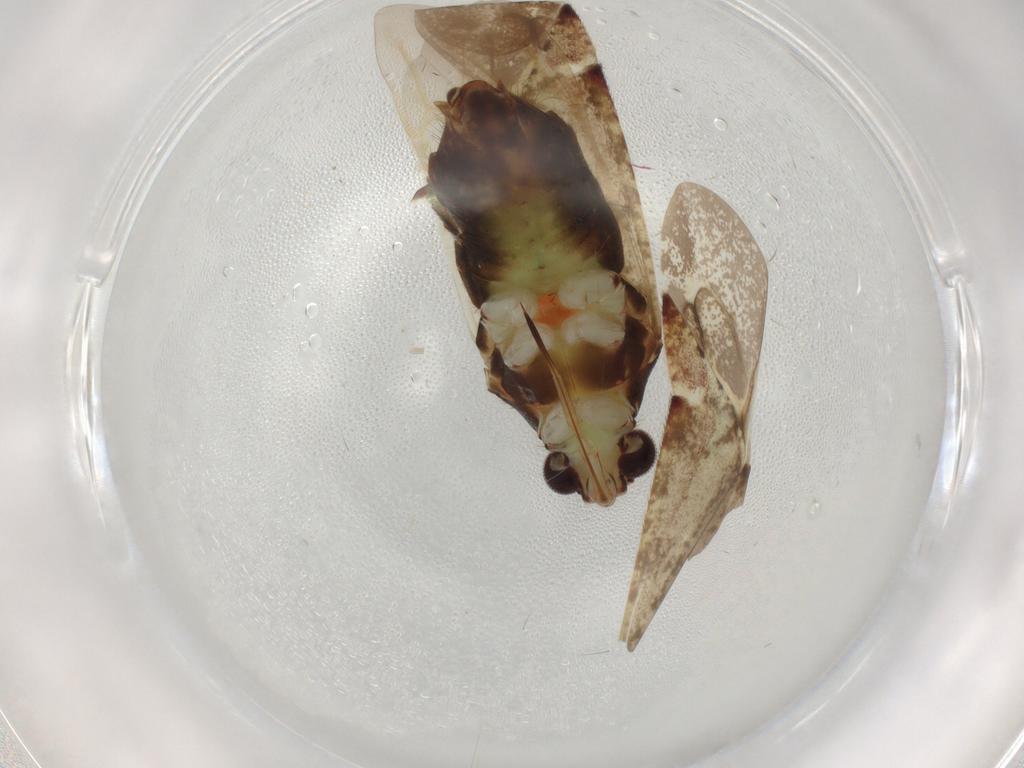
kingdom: Animalia
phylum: Arthropoda
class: Insecta
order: Hemiptera
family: Miridae
